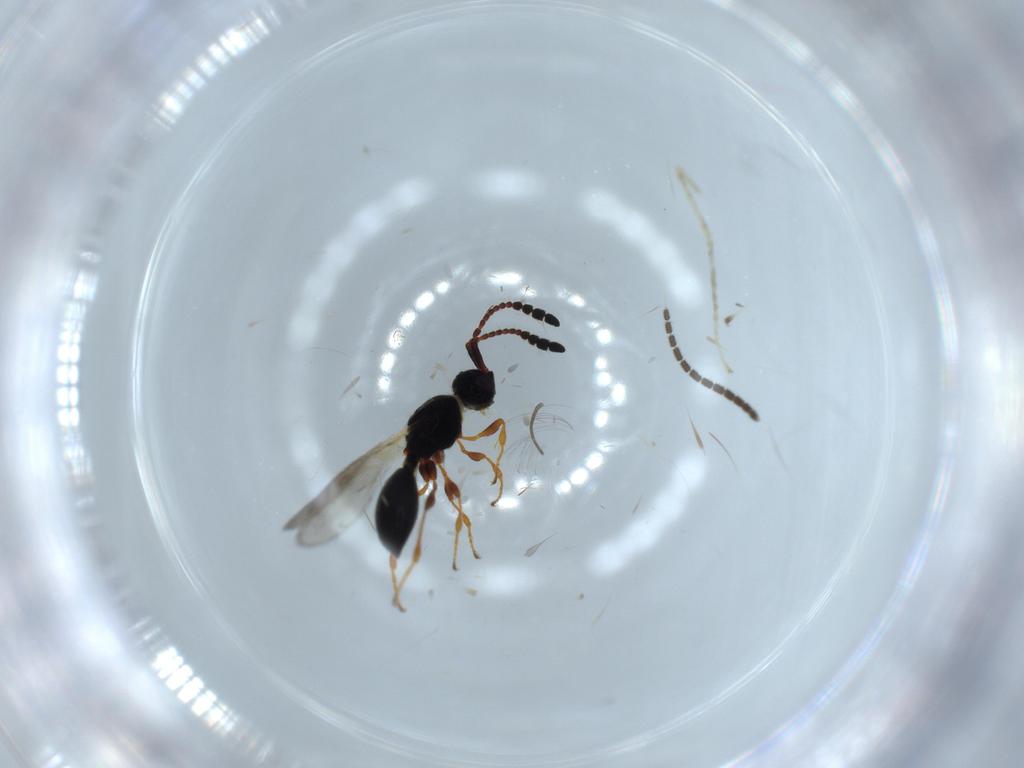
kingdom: Animalia
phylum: Arthropoda
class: Insecta
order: Hymenoptera
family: Diapriidae
